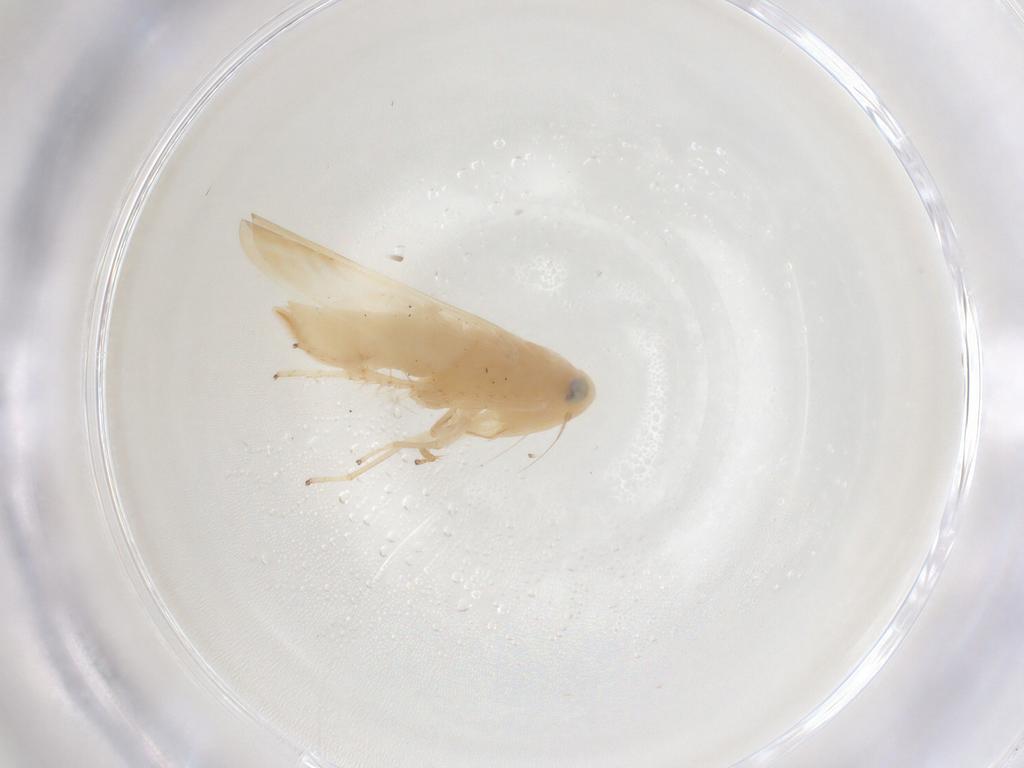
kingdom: Animalia
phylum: Arthropoda
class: Insecta
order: Hemiptera
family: Cicadellidae
